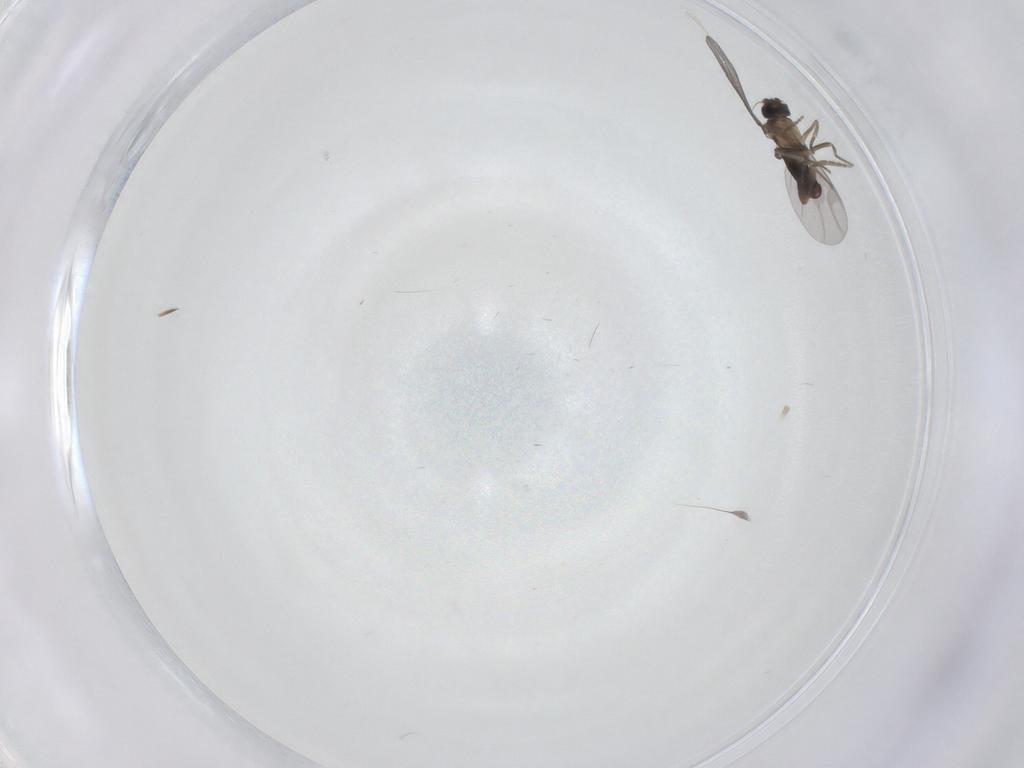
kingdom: Animalia
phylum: Arthropoda
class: Insecta
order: Diptera
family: Cecidomyiidae
